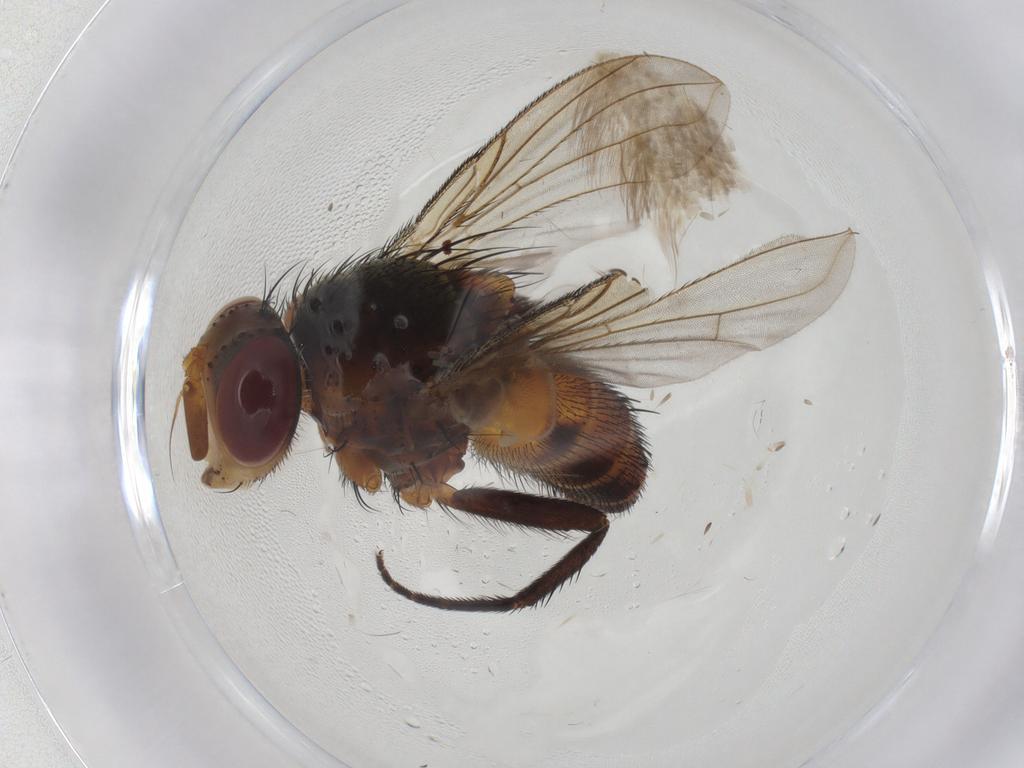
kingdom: Animalia
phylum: Arthropoda
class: Insecta
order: Diptera
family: Tachinidae
